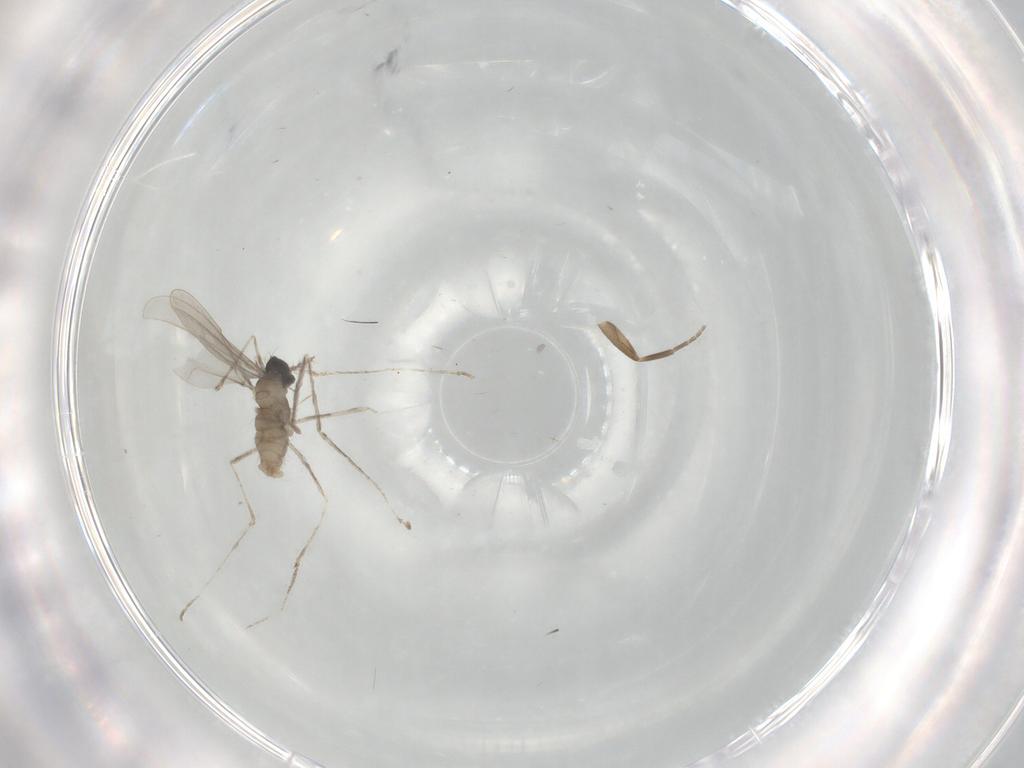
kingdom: Animalia
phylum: Arthropoda
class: Insecta
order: Diptera
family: Cecidomyiidae
